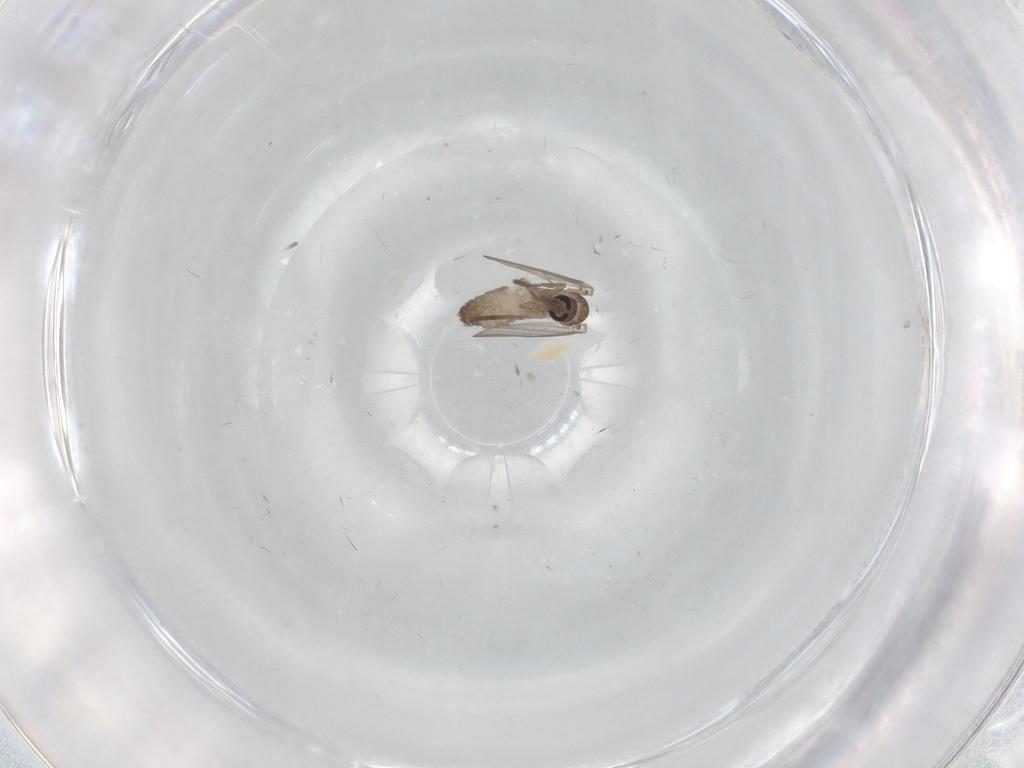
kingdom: Animalia
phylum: Arthropoda
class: Insecta
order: Diptera
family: Psychodidae
